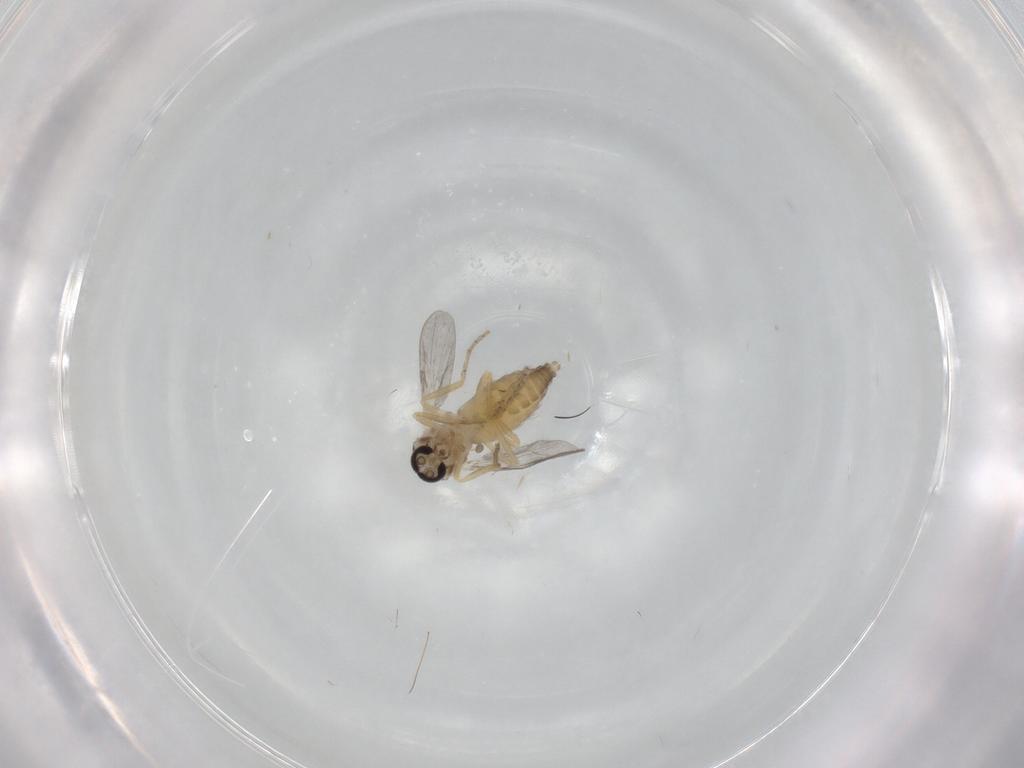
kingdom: Animalia
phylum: Arthropoda
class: Insecta
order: Diptera
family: Ceratopogonidae
